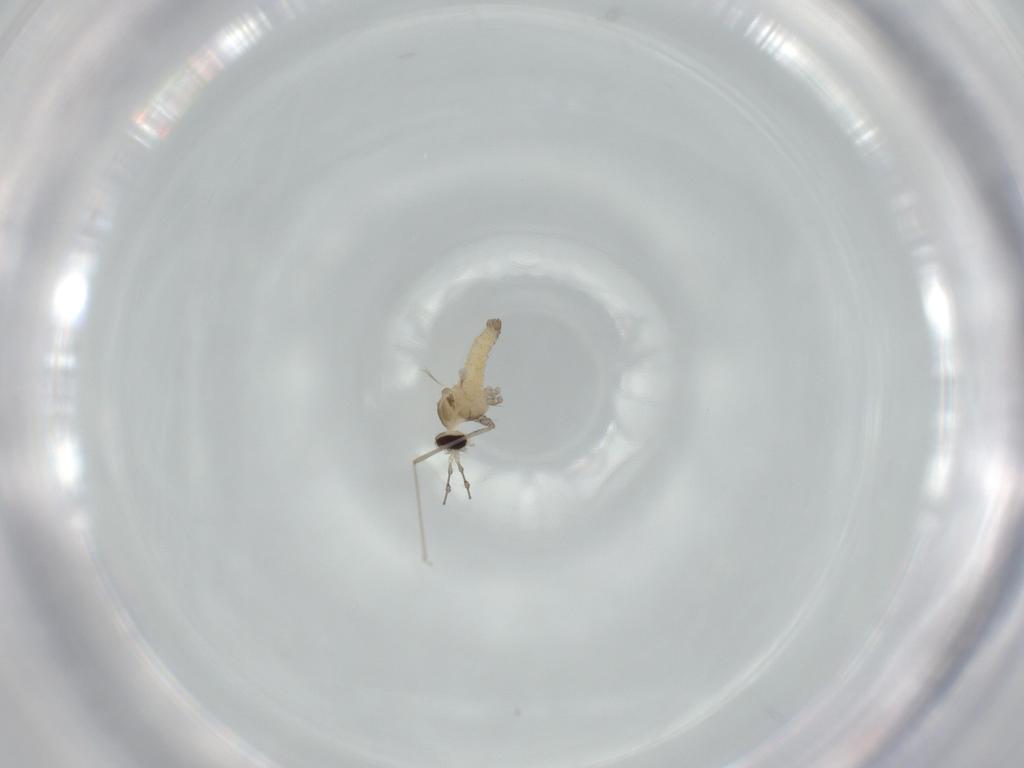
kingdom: Animalia
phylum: Arthropoda
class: Insecta
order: Diptera
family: Cecidomyiidae
